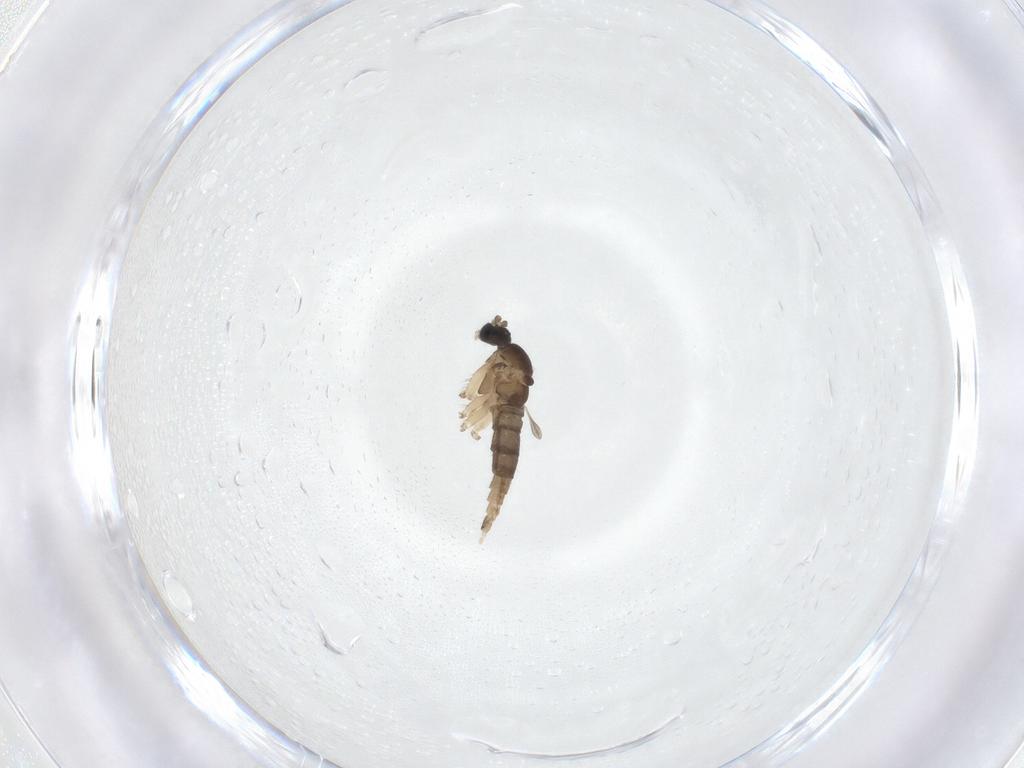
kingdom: Animalia
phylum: Arthropoda
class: Insecta
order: Diptera
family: Sciaridae
